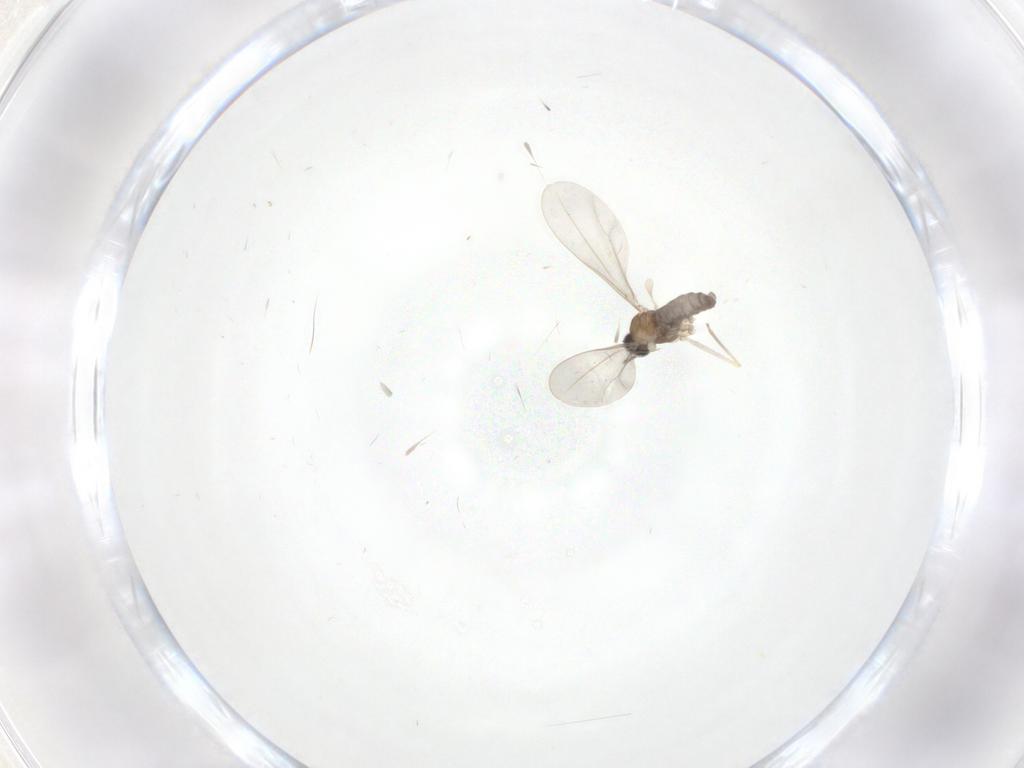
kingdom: Animalia
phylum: Arthropoda
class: Insecta
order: Diptera
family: Cecidomyiidae
